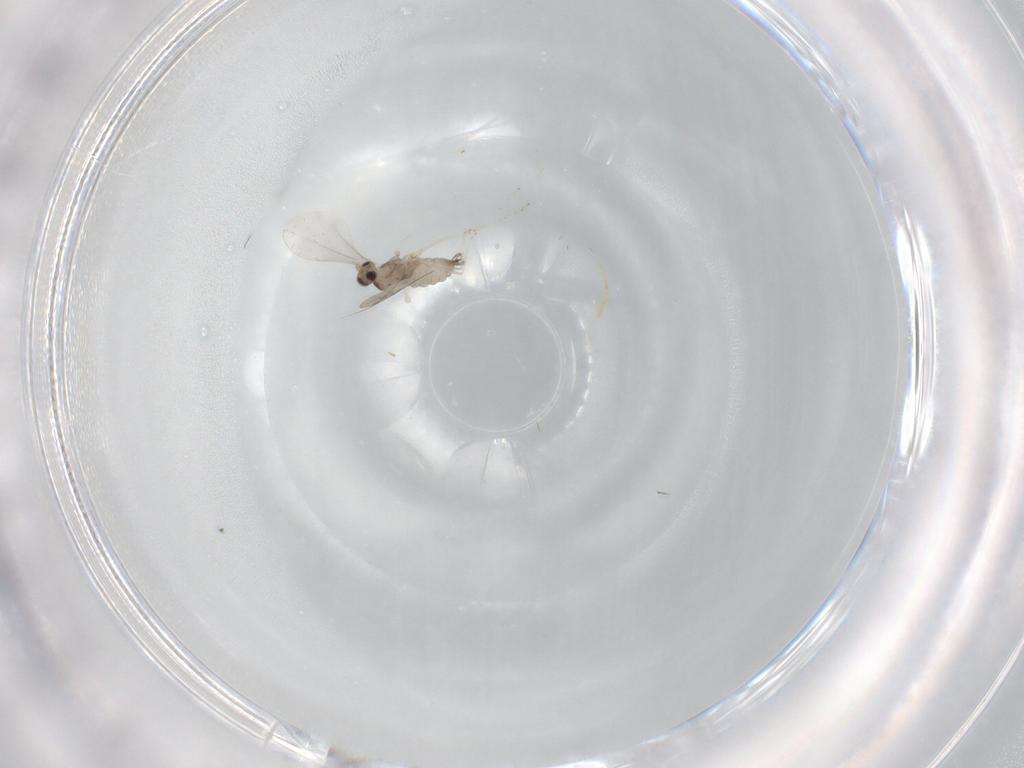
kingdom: Animalia
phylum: Arthropoda
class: Insecta
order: Diptera
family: Cecidomyiidae
